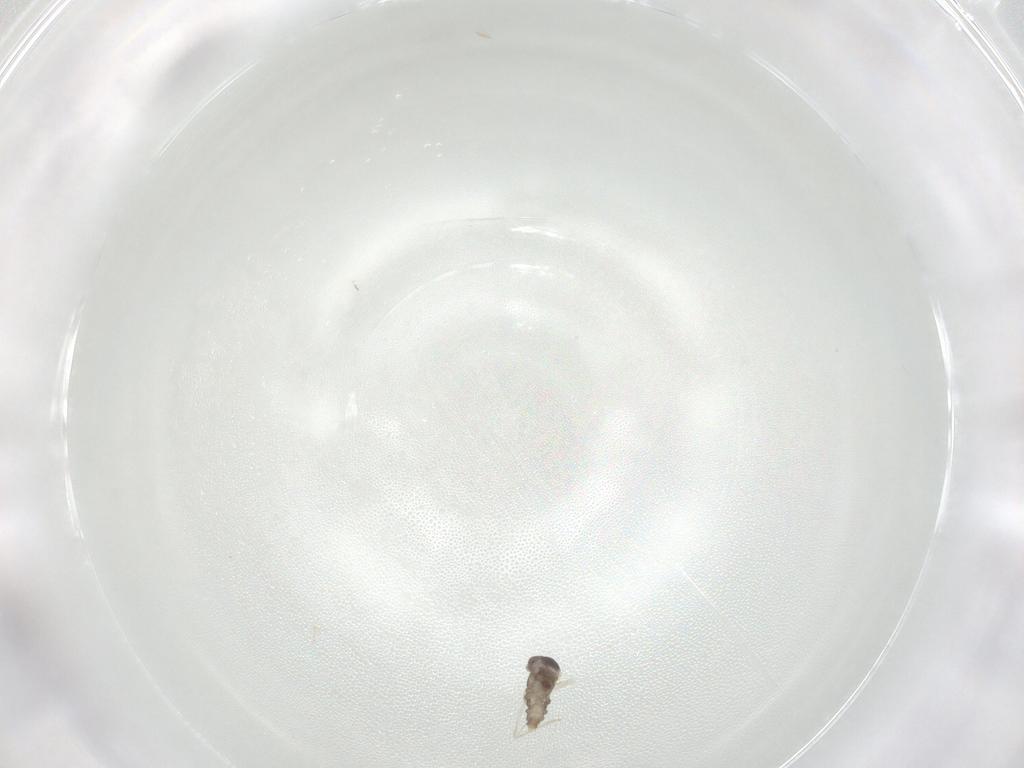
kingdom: Animalia
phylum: Arthropoda
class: Insecta
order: Diptera
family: Cecidomyiidae
